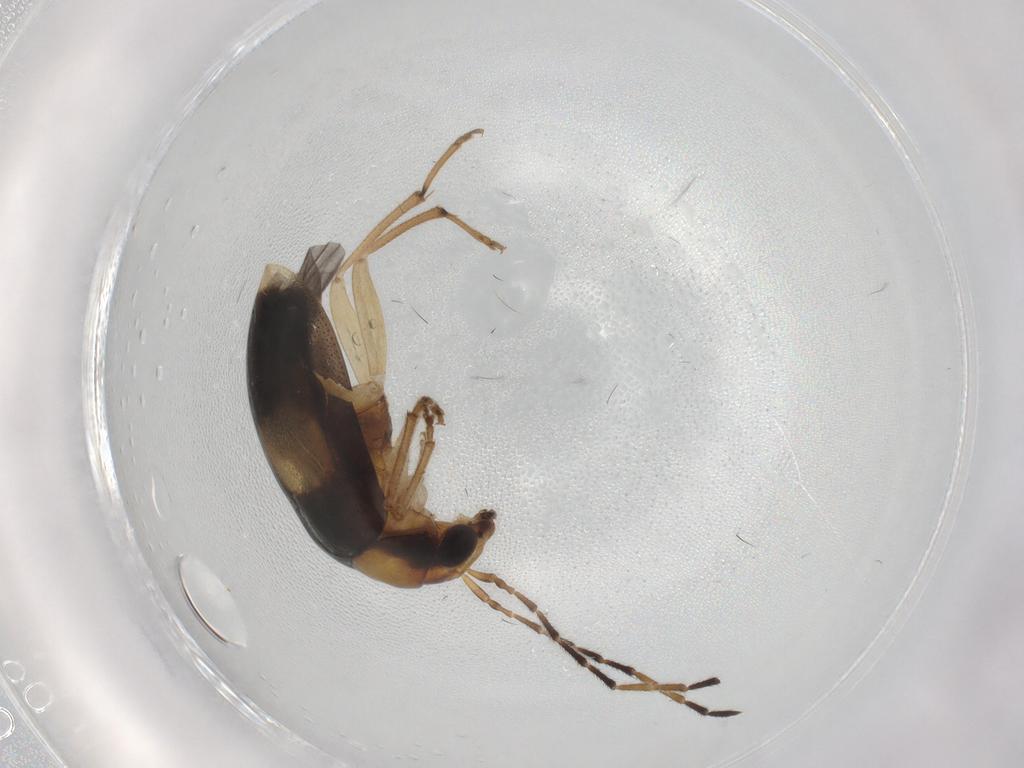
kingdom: Animalia
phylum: Arthropoda
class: Insecta
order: Coleoptera
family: Chrysomelidae
